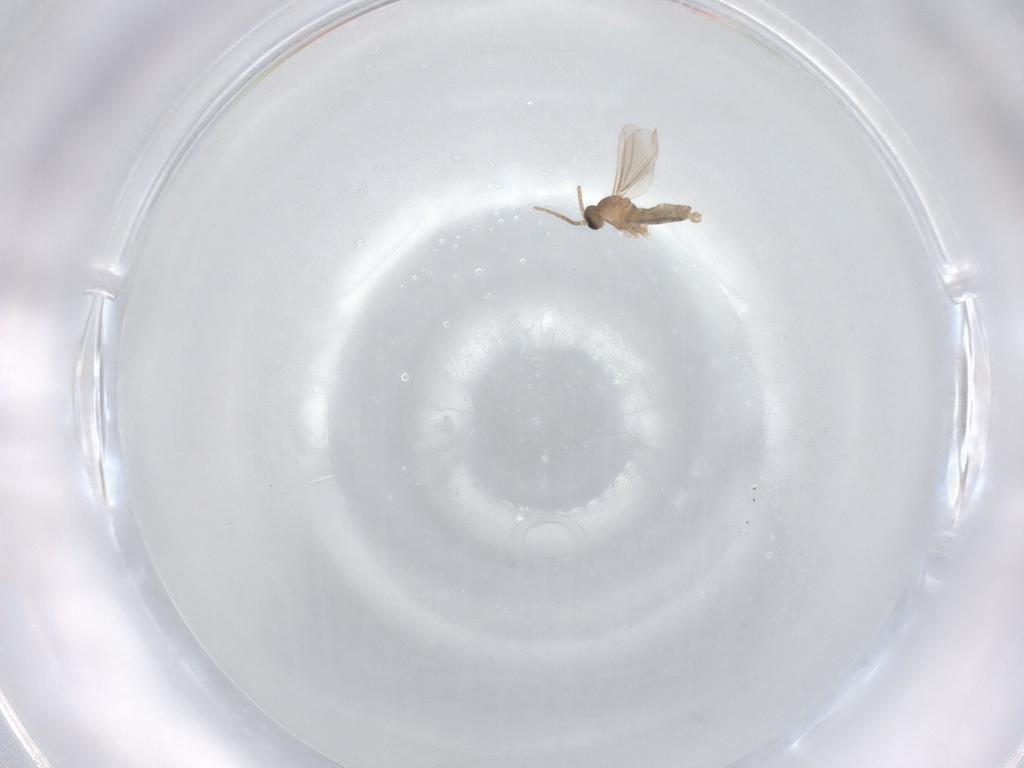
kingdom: Animalia
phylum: Arthropoda
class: Insecta
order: Diptera
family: Cecidomyiidae
